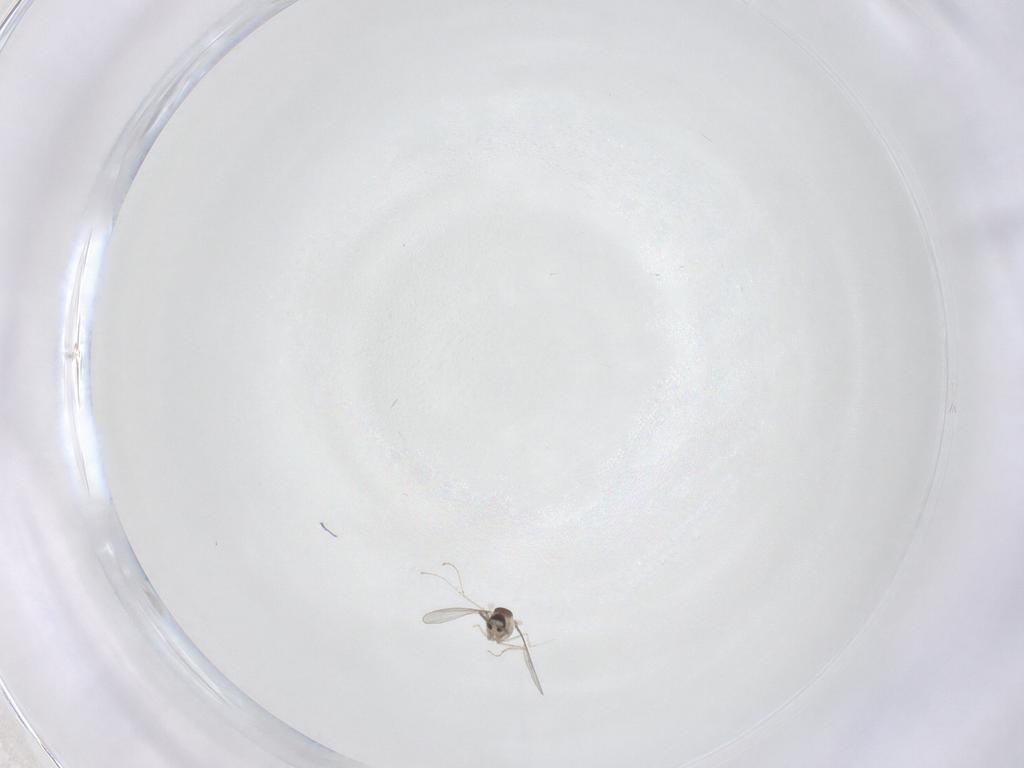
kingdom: Animalia
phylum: Arthropoda
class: Insecta
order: Diptera
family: Cecidomyiidae
